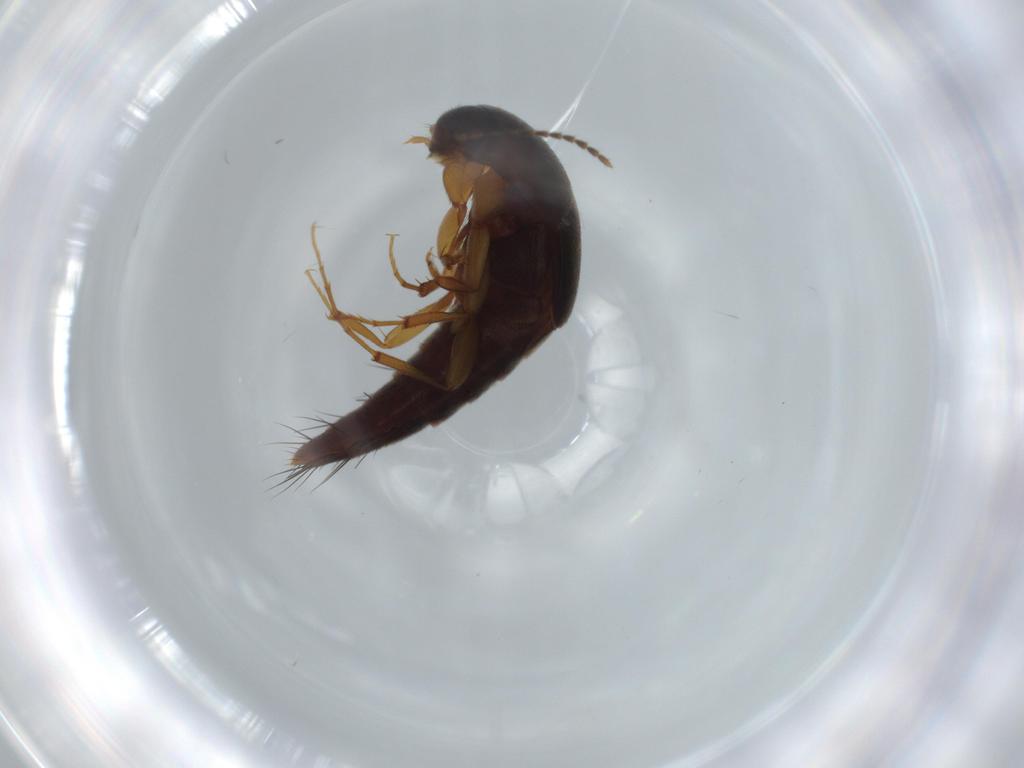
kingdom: Animalia
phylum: Arthropoda
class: Insecta
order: Coleoptera
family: Staphylinidae
